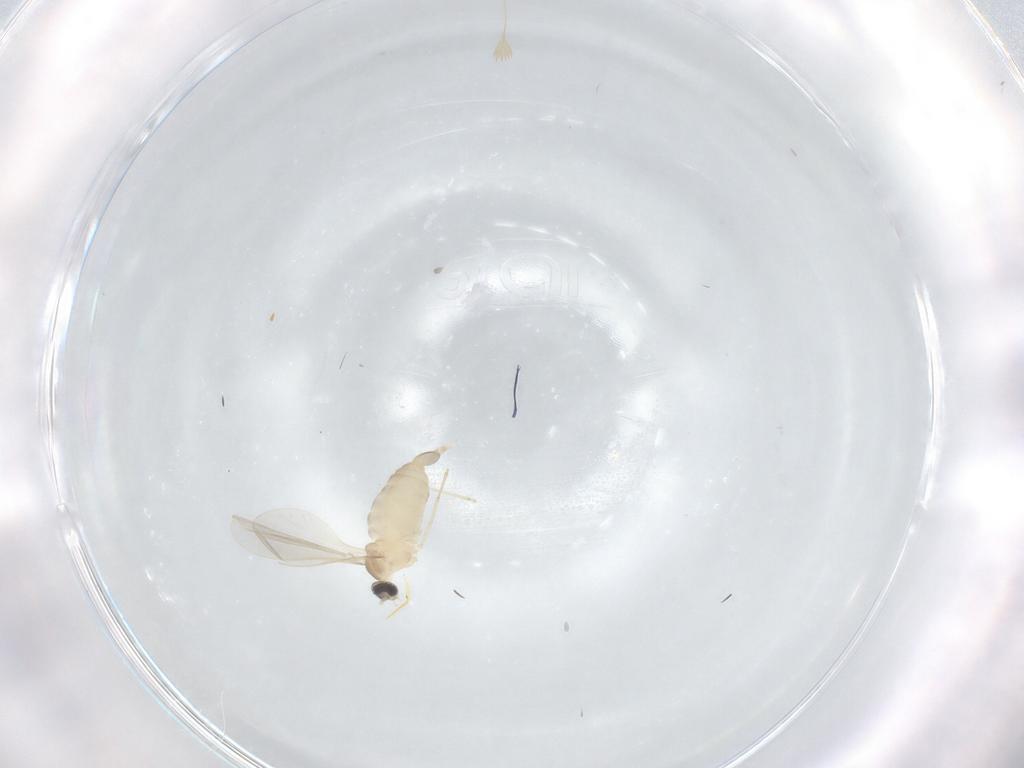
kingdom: Animalia
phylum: Arthropoda
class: Insecta
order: Diptera
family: Cecidomyiidae
